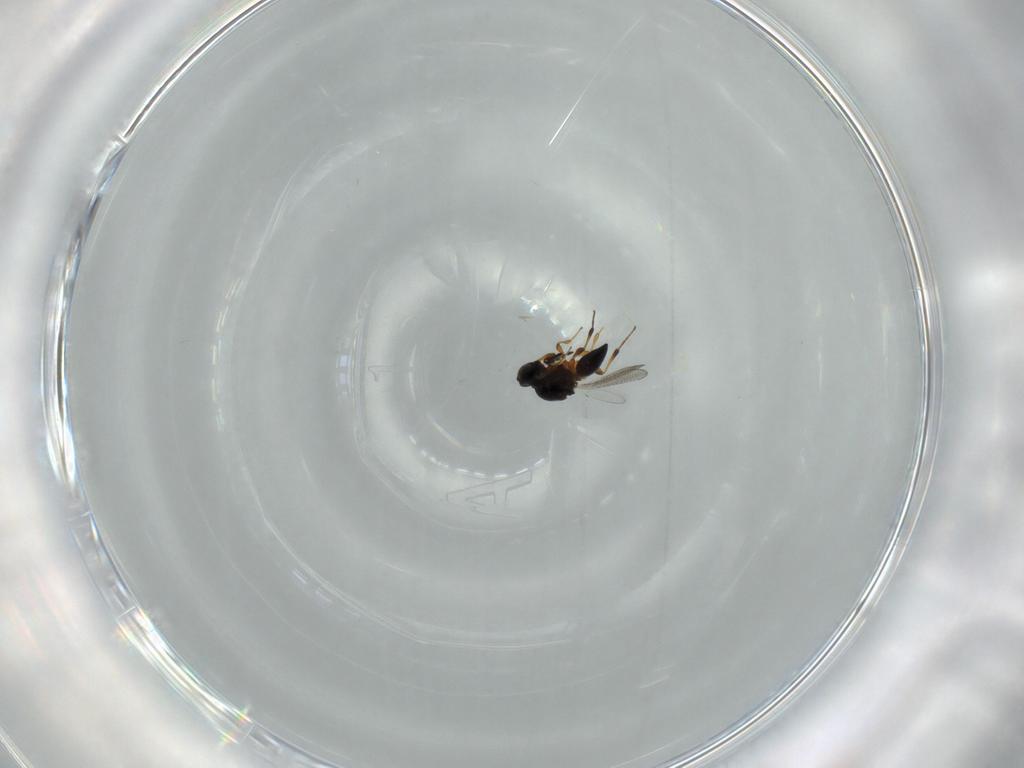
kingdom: Animalia
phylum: Arthropoda
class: Insecta
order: Hymenoptera
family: Platygastridae
